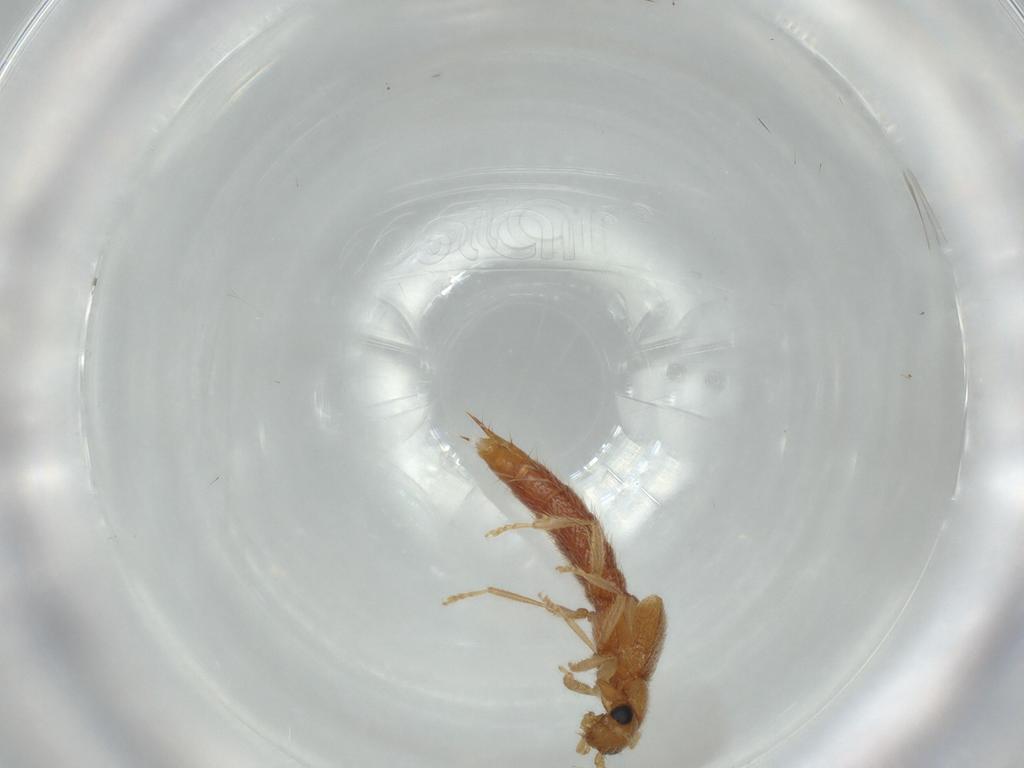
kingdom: Animalia
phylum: Arthropoda
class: Insecta
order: Coleoptera
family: Staphylinidae
